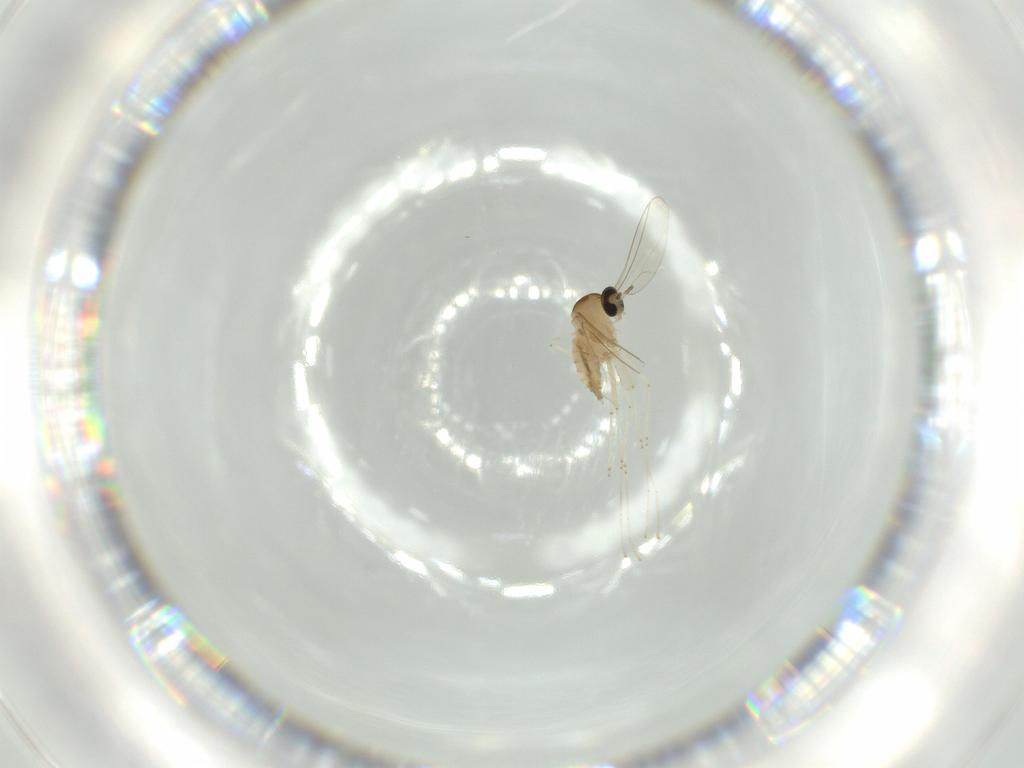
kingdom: Animalia
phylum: Arthropoda
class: Insecta
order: Diptera
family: Cecidomyiidae
